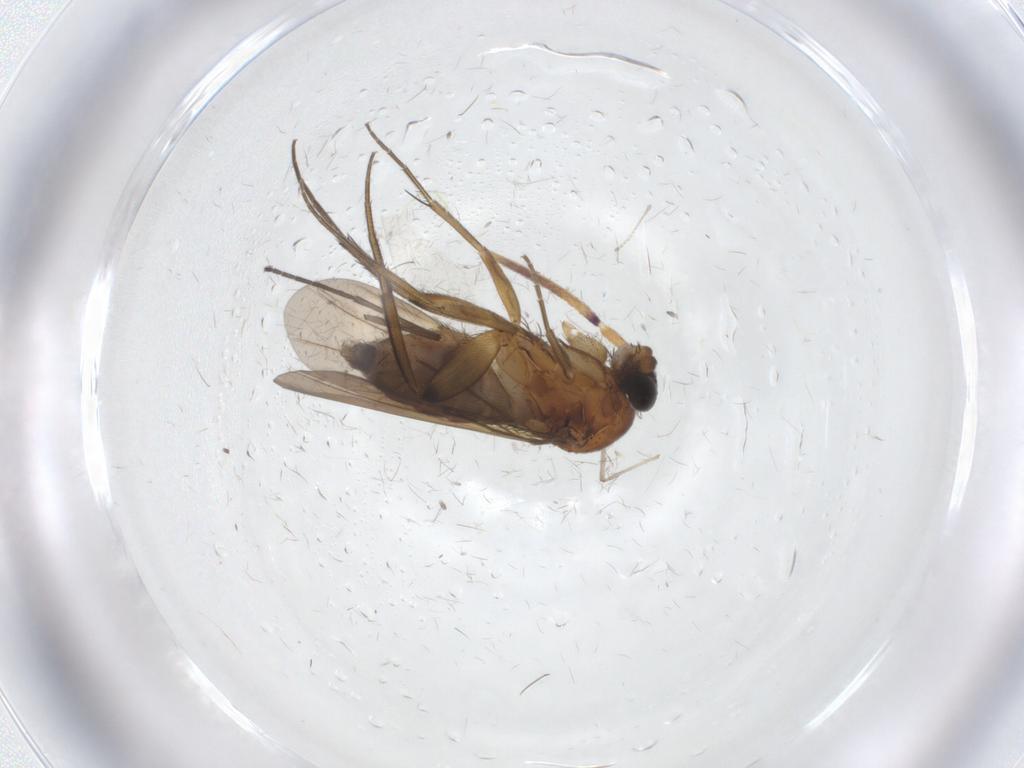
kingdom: Animalia
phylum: Arthropoda
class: Insecta
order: Diptera
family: Phoridae
